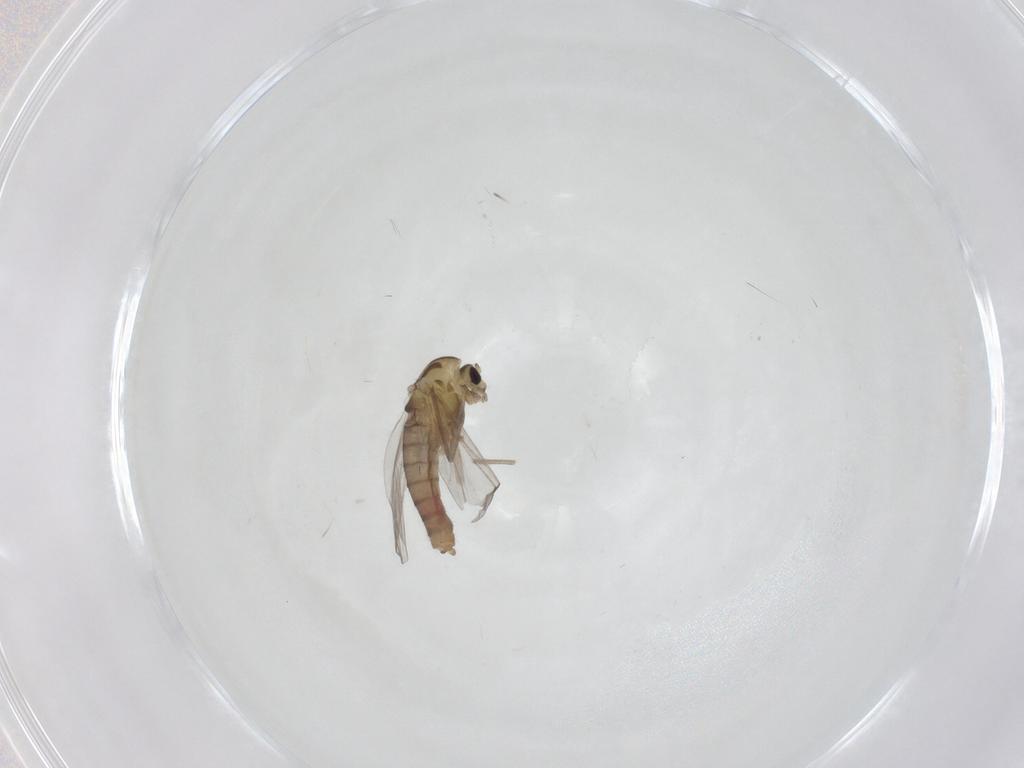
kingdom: Animalia
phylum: Arthropoda
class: Insecta
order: Diptera
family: Chironomidae
